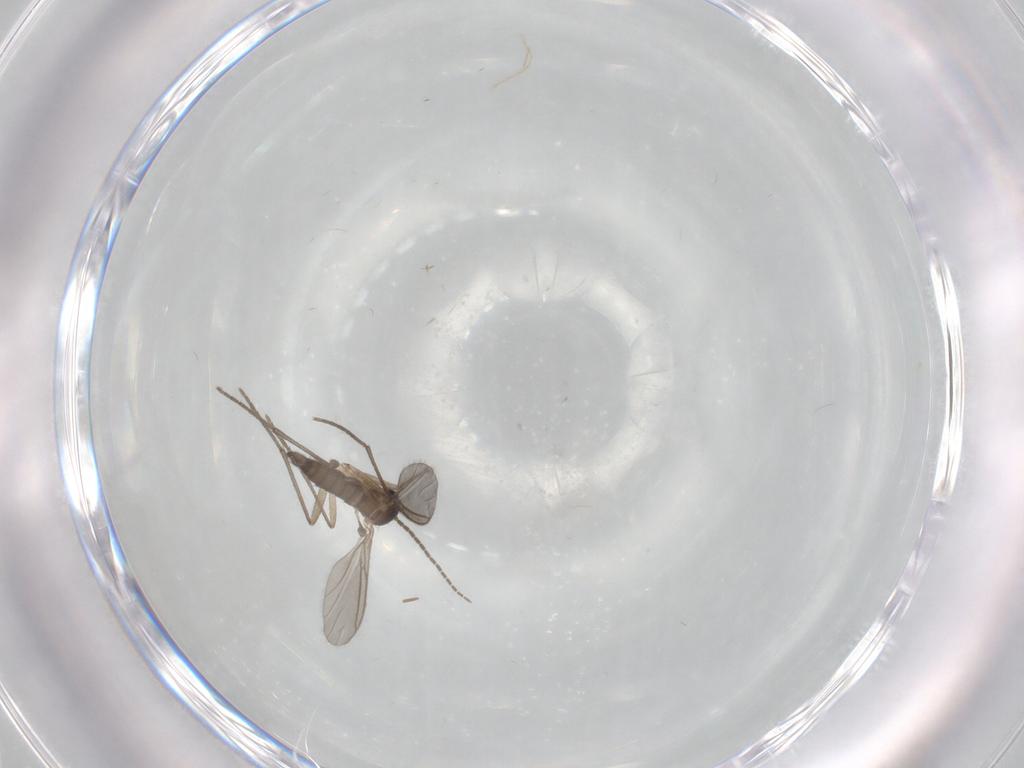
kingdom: Animalia
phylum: Arthropoda
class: Insecta
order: Diptera
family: Sciaridae
